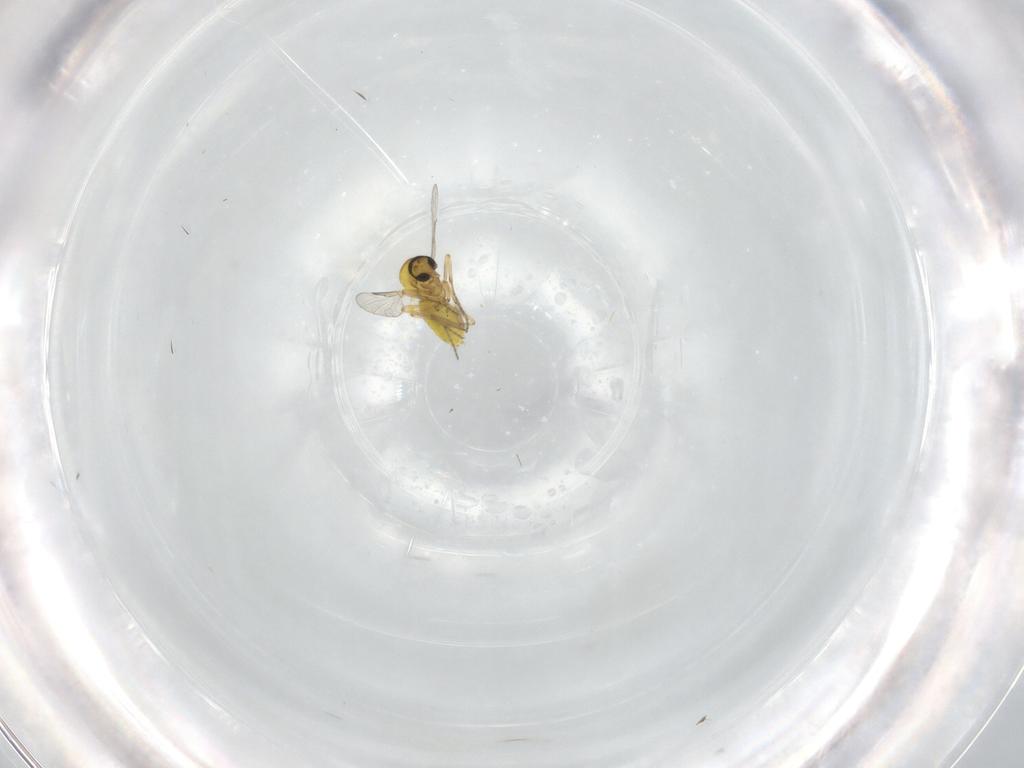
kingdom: Animalia
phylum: Arthropoda
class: Insecta
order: Diptera
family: Ceratopogonidae
